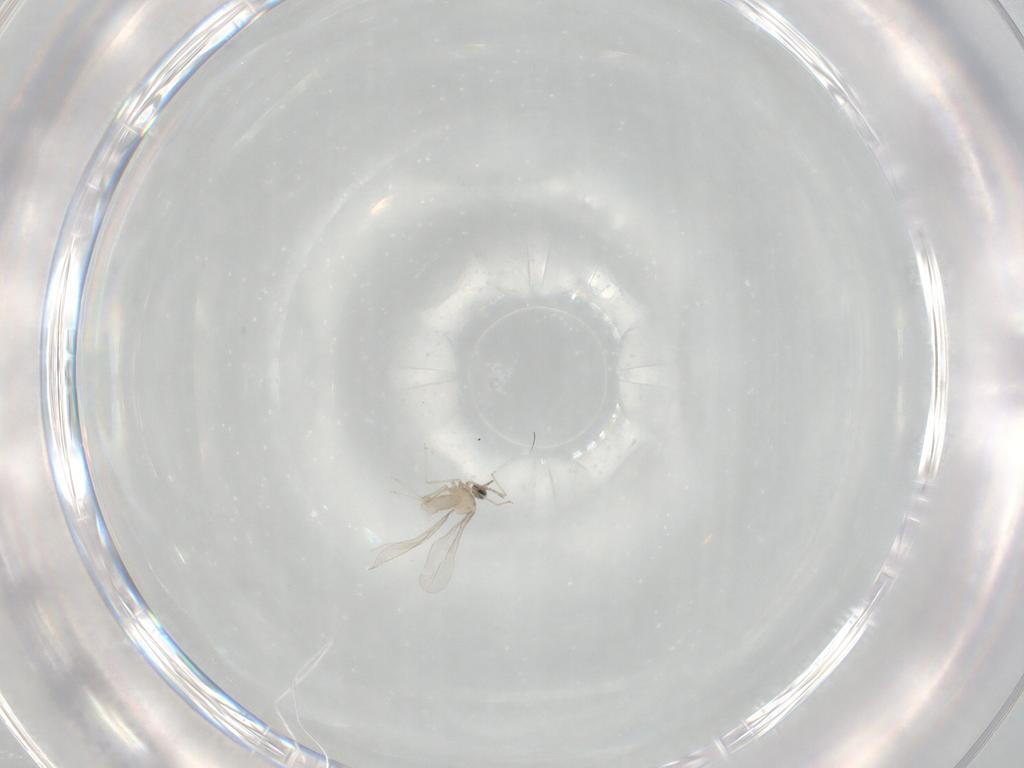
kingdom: Animalia
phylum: Arthropoda
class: Insecta
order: Diptera
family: Cecidomyiidae
